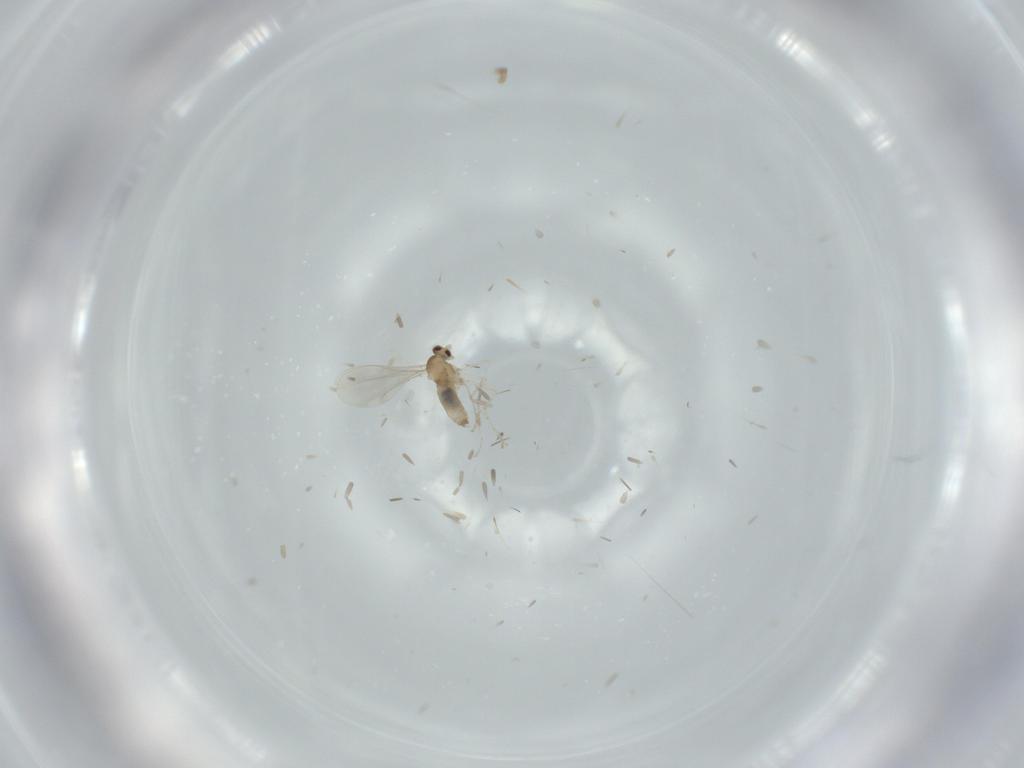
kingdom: Animalia
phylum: Arthropoda
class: Insecta
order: Diptera
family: Cecidomyiidae
